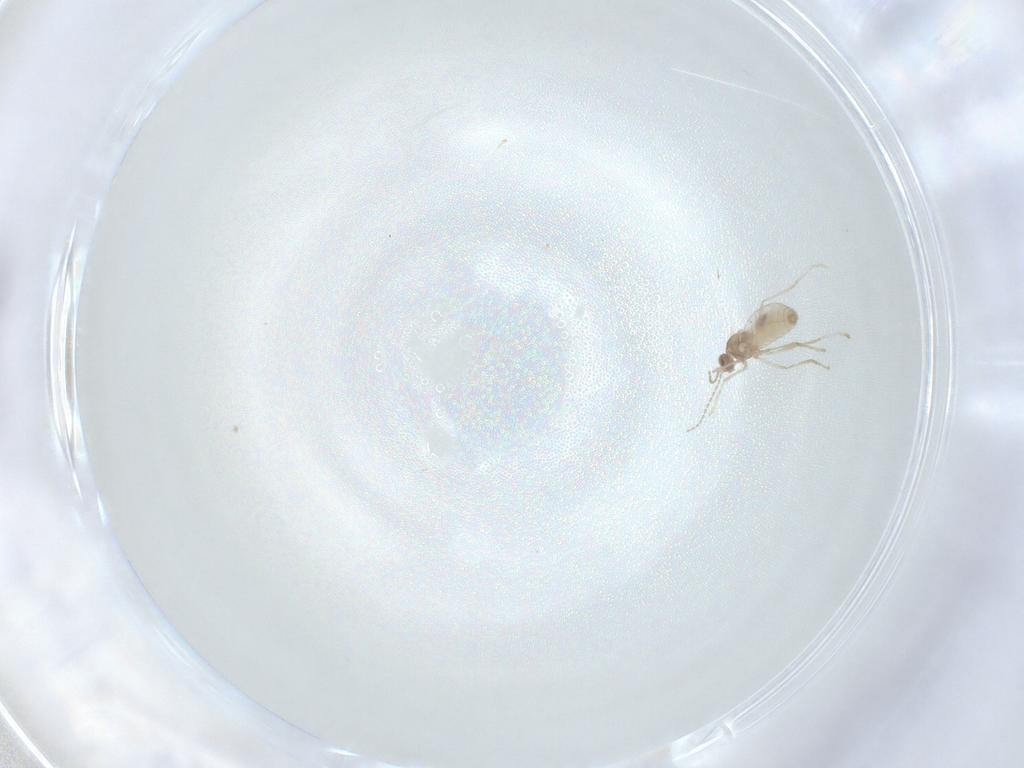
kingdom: Animalia
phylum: Arthropoda
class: Insecta
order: Diptera
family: Cecidomyiidae
